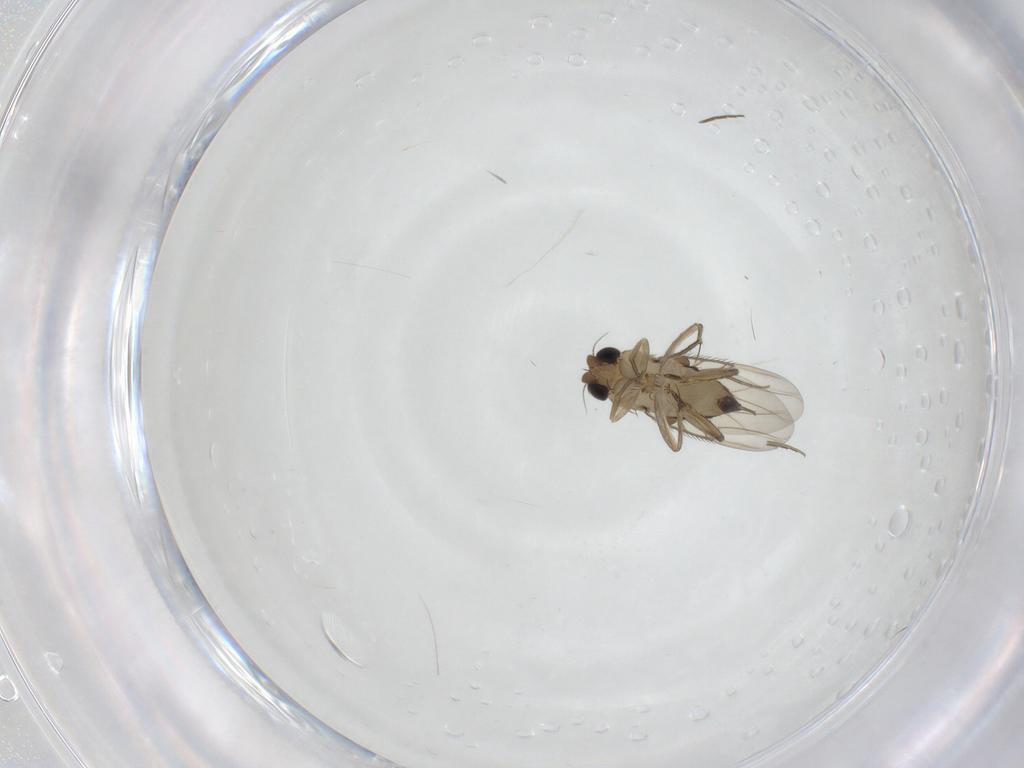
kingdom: Animalia
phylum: Arthropoda
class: Insecta
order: Diptera
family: Phoridae
